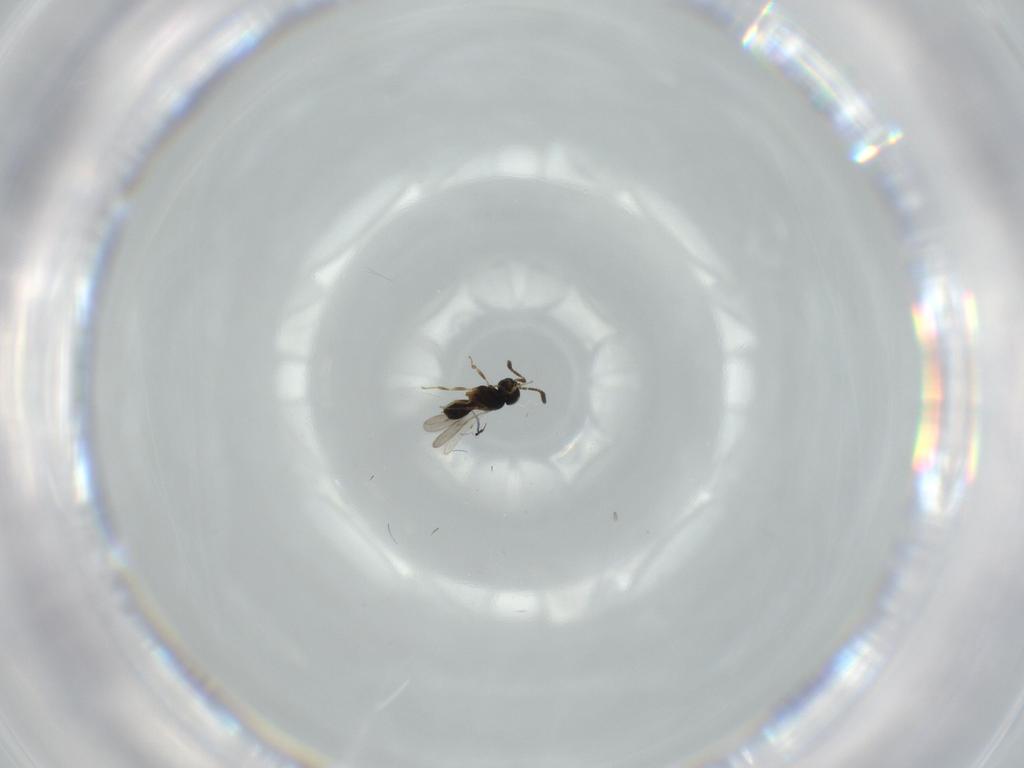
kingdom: Animalia
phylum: Arthropoda
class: Insecta
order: Hymenoptera
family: Scelionidae
